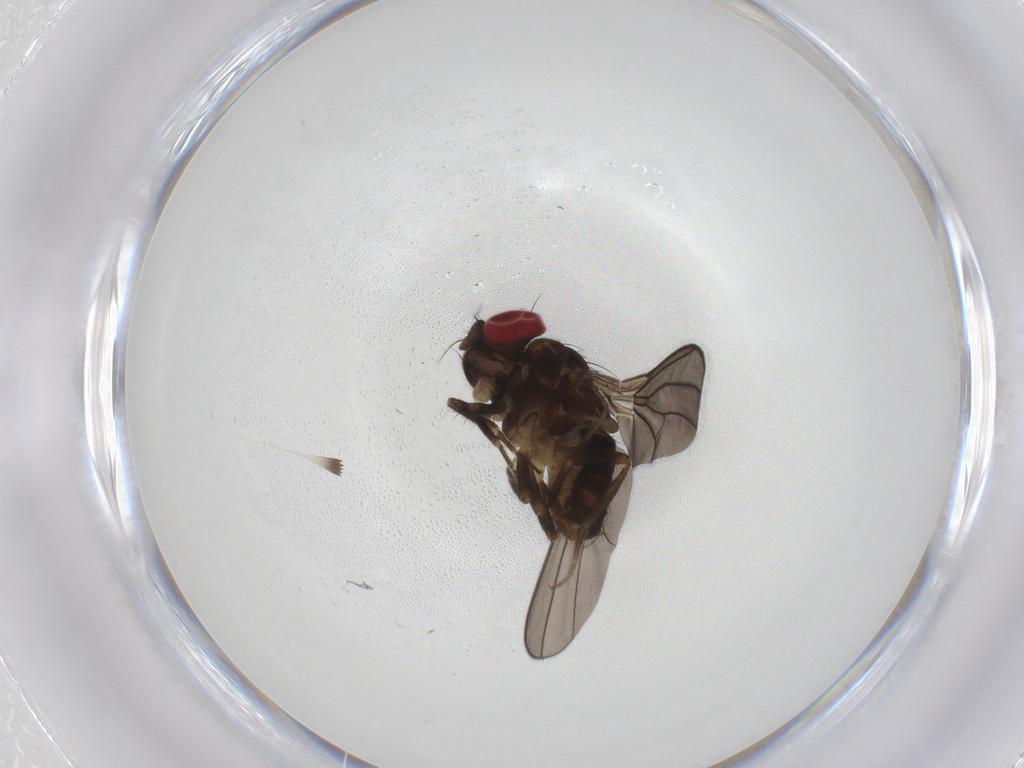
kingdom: Animalia
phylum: Arthropoda
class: Insecta
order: Diptera
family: Drosophilidae
